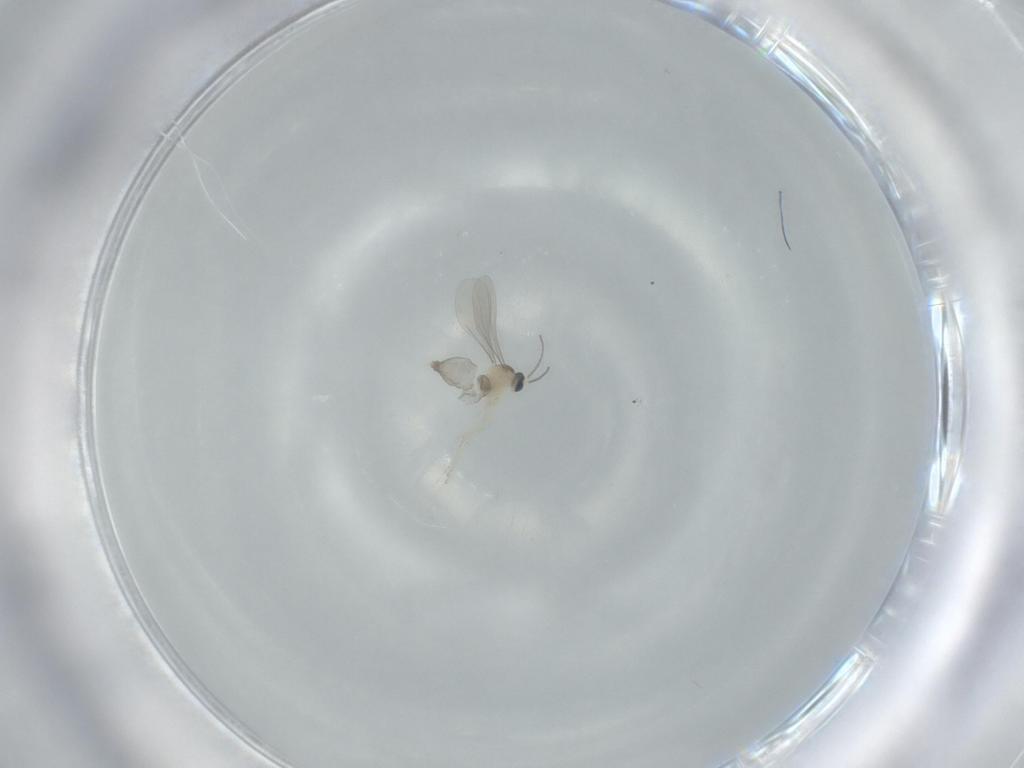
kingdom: Animalia
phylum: Arthropoda
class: Insecta
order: Diptera
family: Cecidomyiidae
